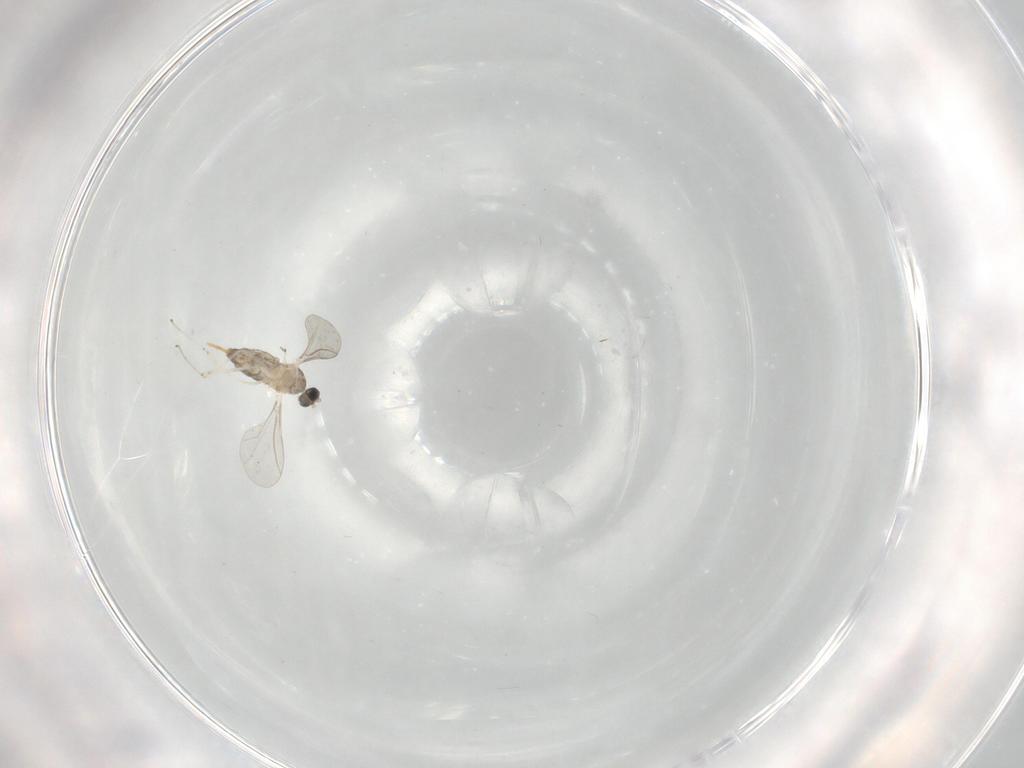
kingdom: Animalia
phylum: Arthropoda
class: Insecta
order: Diptera
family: Cecidomyiidae
